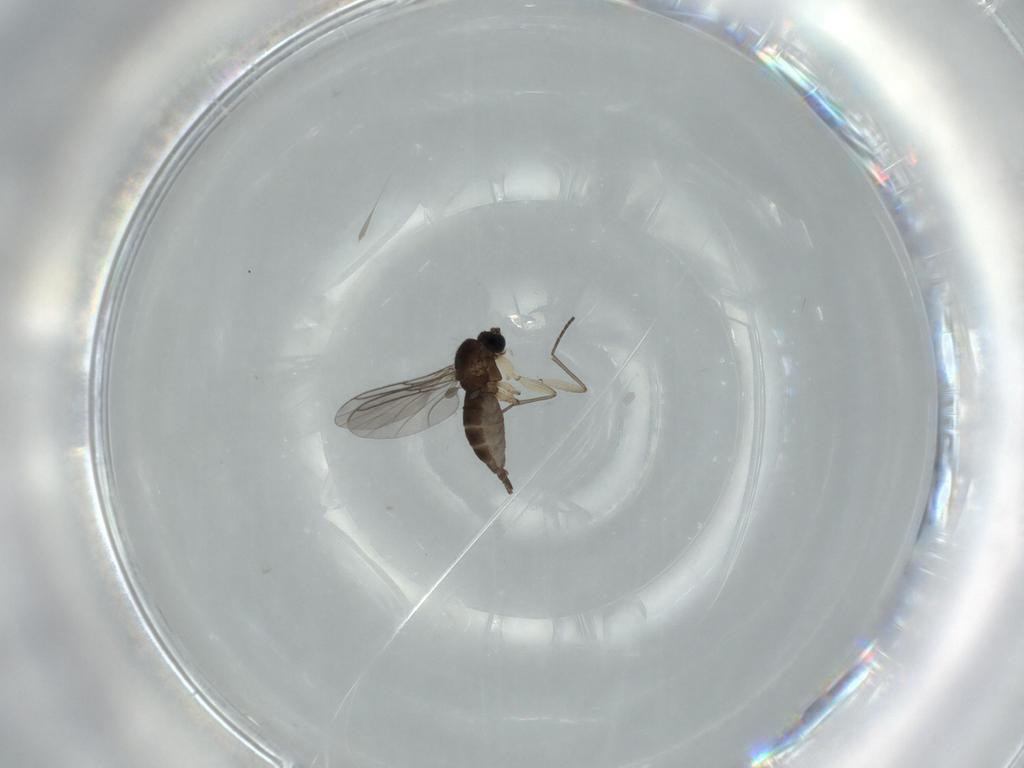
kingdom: Animalia
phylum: Arthropoda
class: Insecta
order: Diptera
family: Sciaridae
